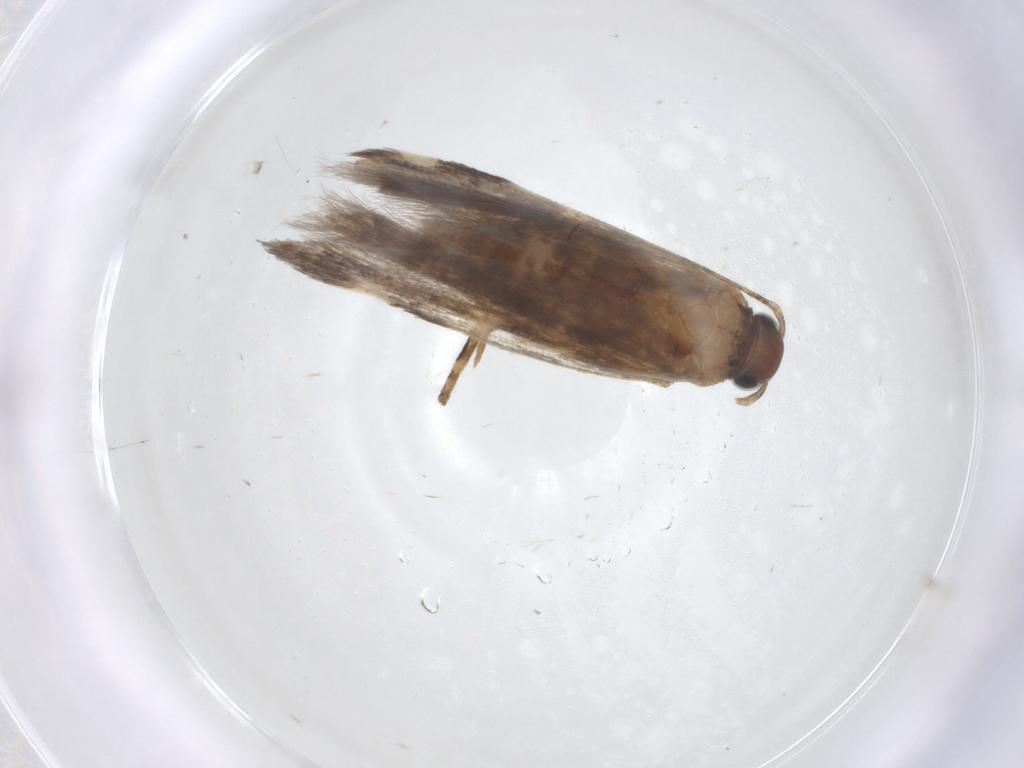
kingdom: Animalia
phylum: Arthropoda
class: Insecta
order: Lepidoptera
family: Gelechiidae
